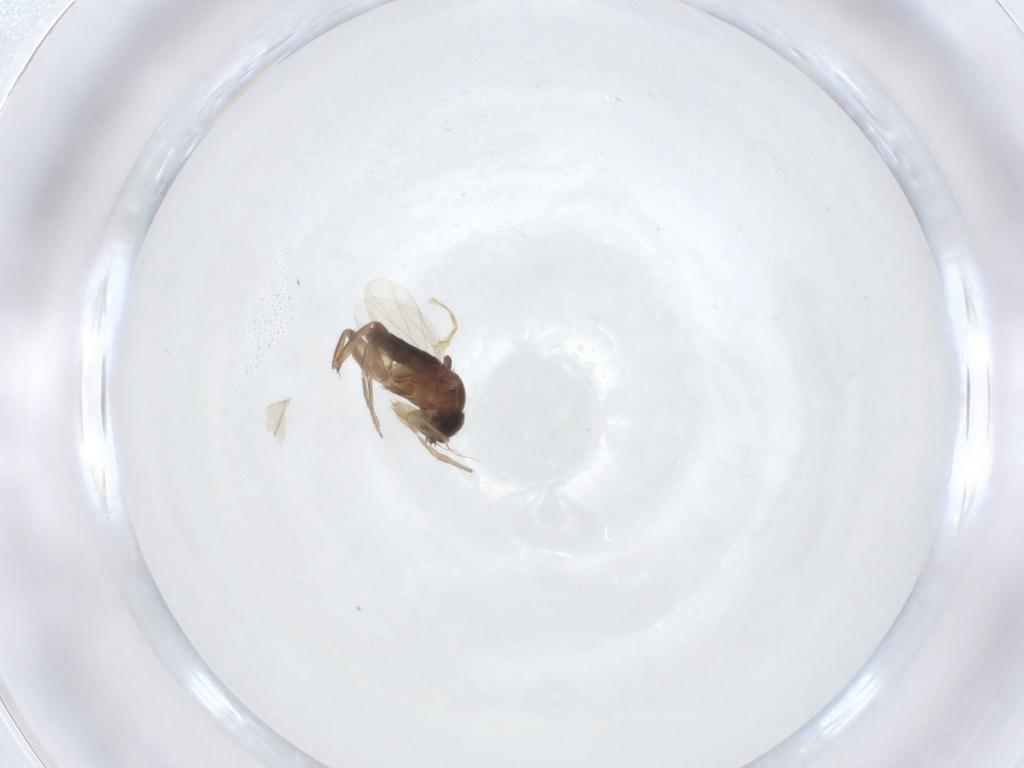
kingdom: Animalia
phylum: Arthropoda
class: Insecta
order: Diptera
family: Phoridae
